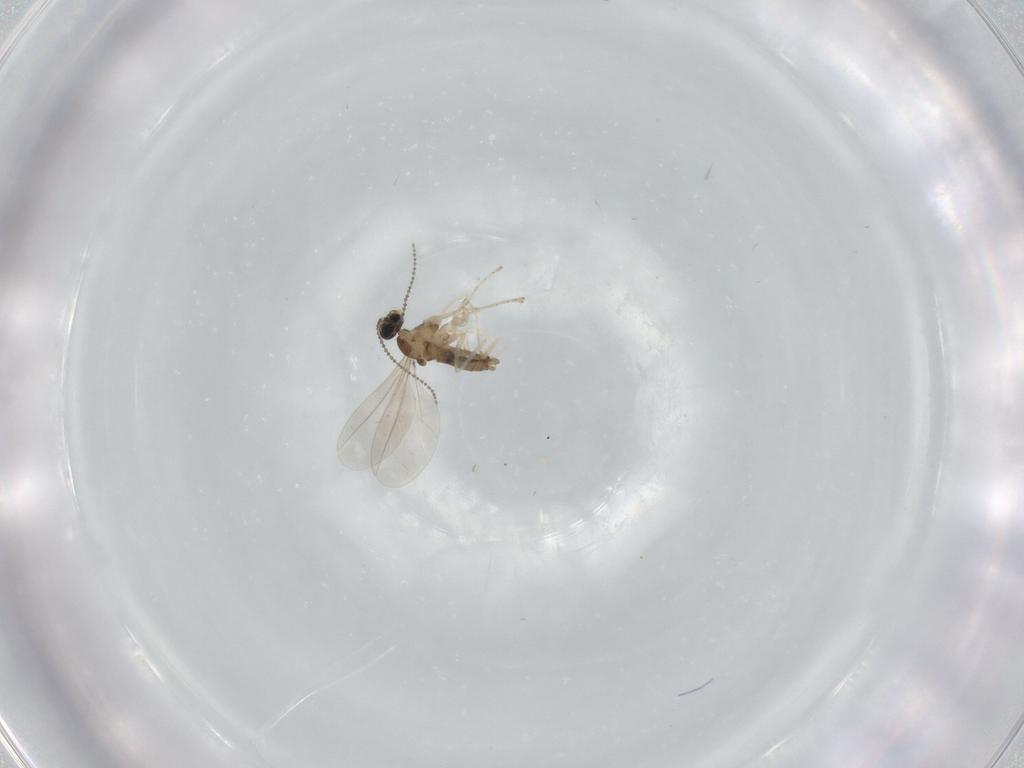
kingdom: Animalia
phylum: Arthropoda
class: Insecta
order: Diptera
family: Cecidomyiidae
